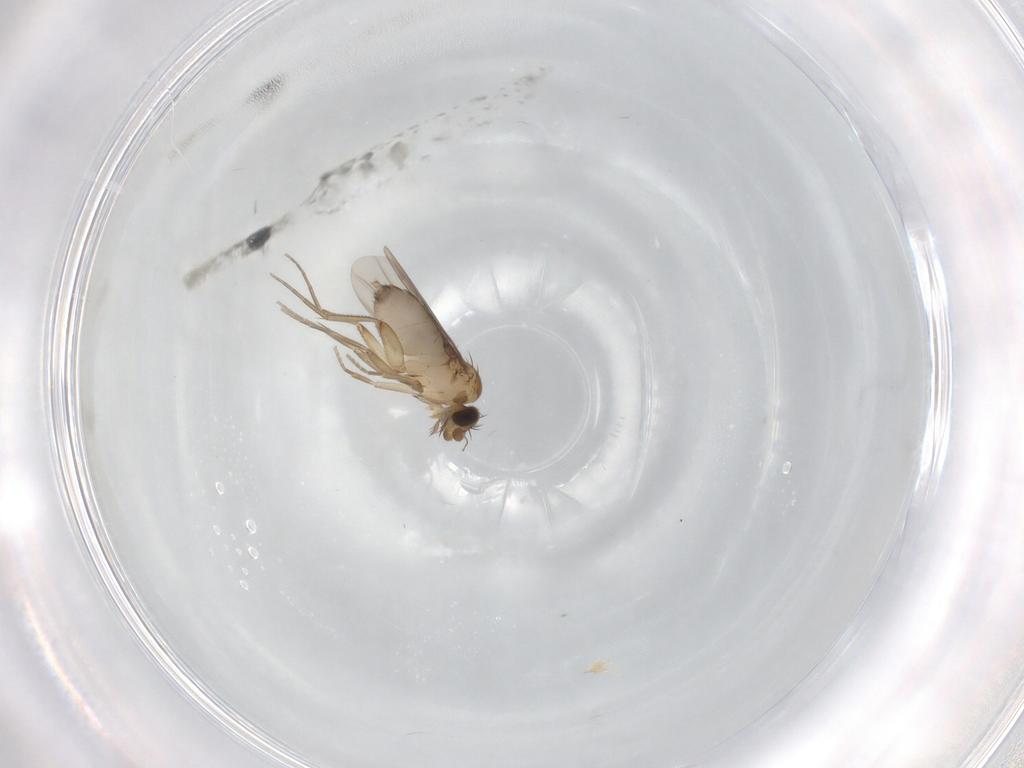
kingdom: Animalia
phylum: Arthropoda
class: Insecta
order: Diptera
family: Phoridae
